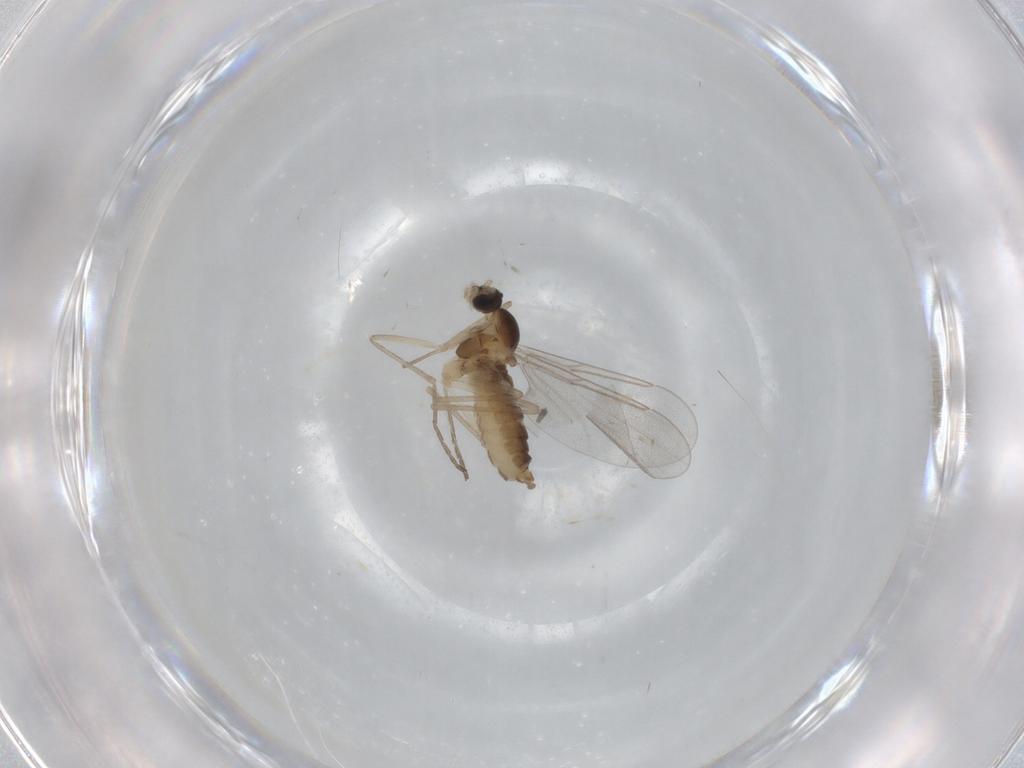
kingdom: Animalia
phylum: Arthropoda
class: Insecta
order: Diptera
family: Cecidomyiidae
